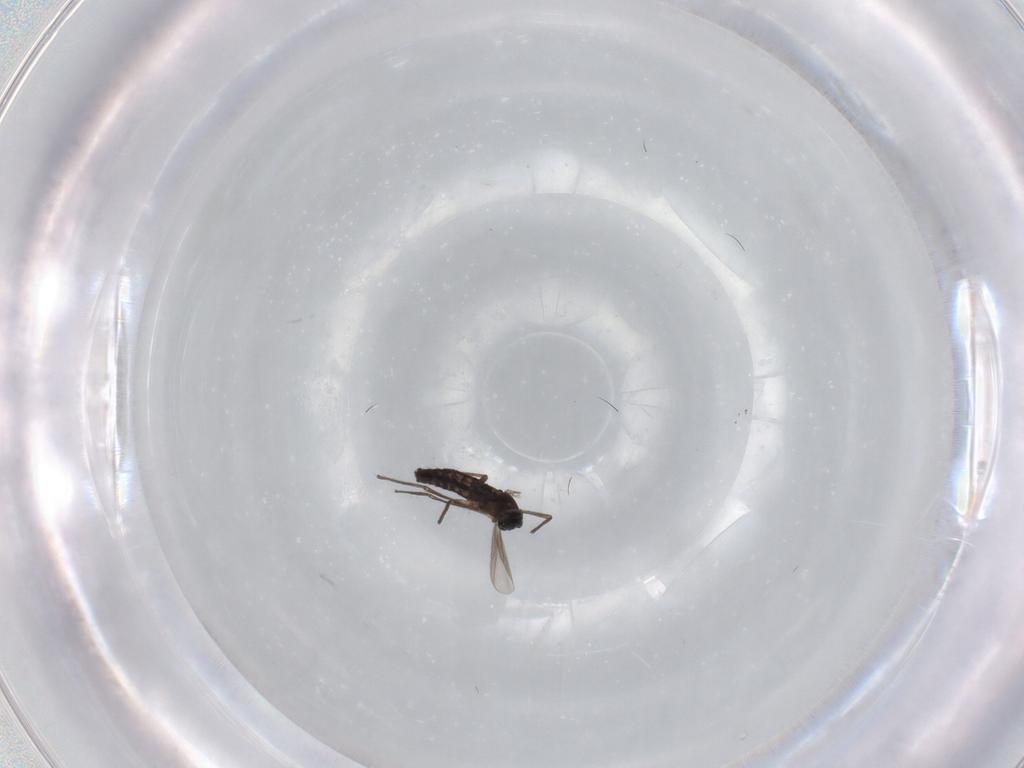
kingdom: Animalia
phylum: Arthropoda
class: Insecta
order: Diptera
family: Chironomidae
